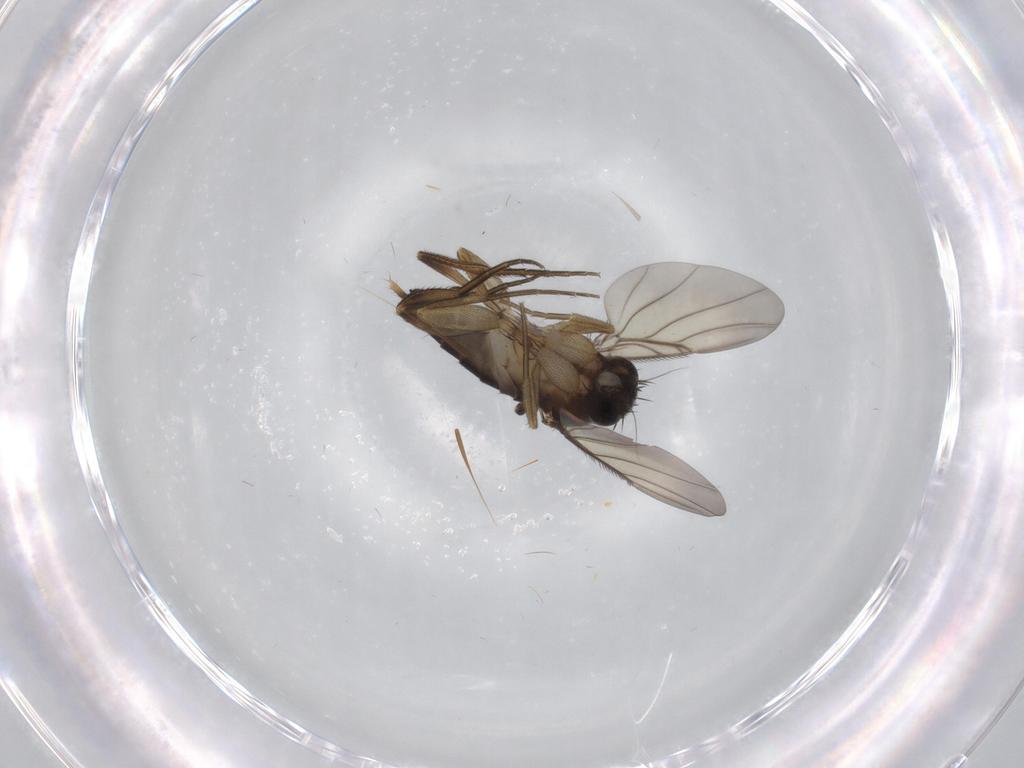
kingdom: Animalia
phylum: Arthropoda
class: Insecta
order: Diptera
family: Phoridae
